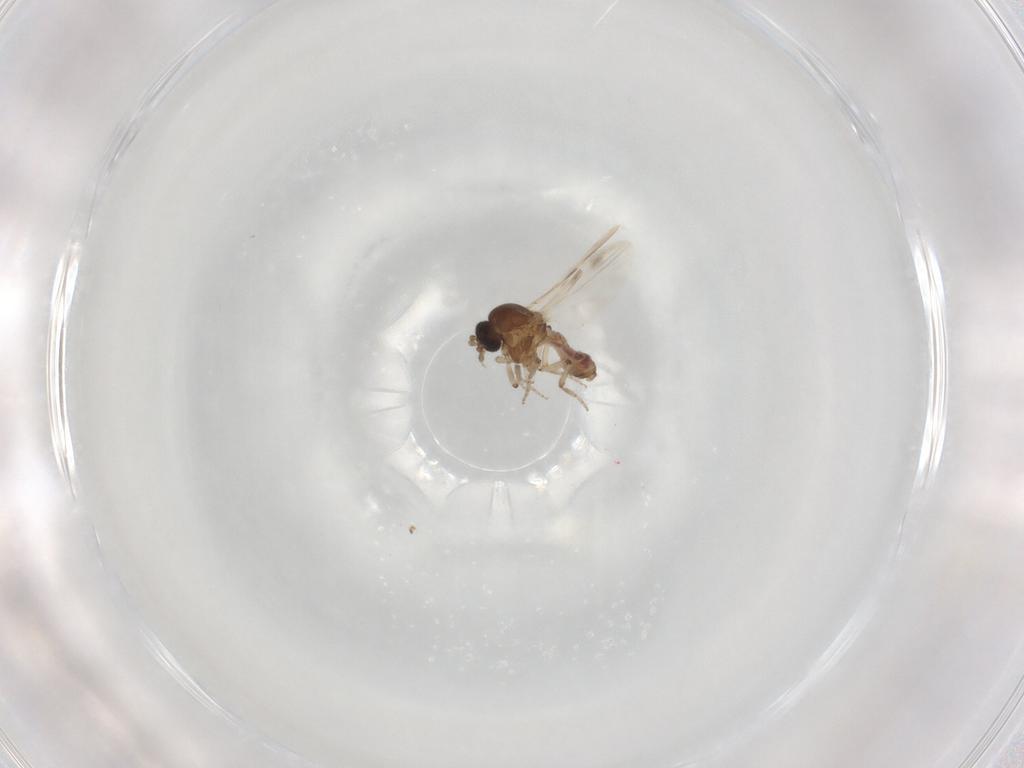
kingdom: Animalia
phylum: Arthropoda
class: Insecta
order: Diptera
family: Ceratopogonidae
